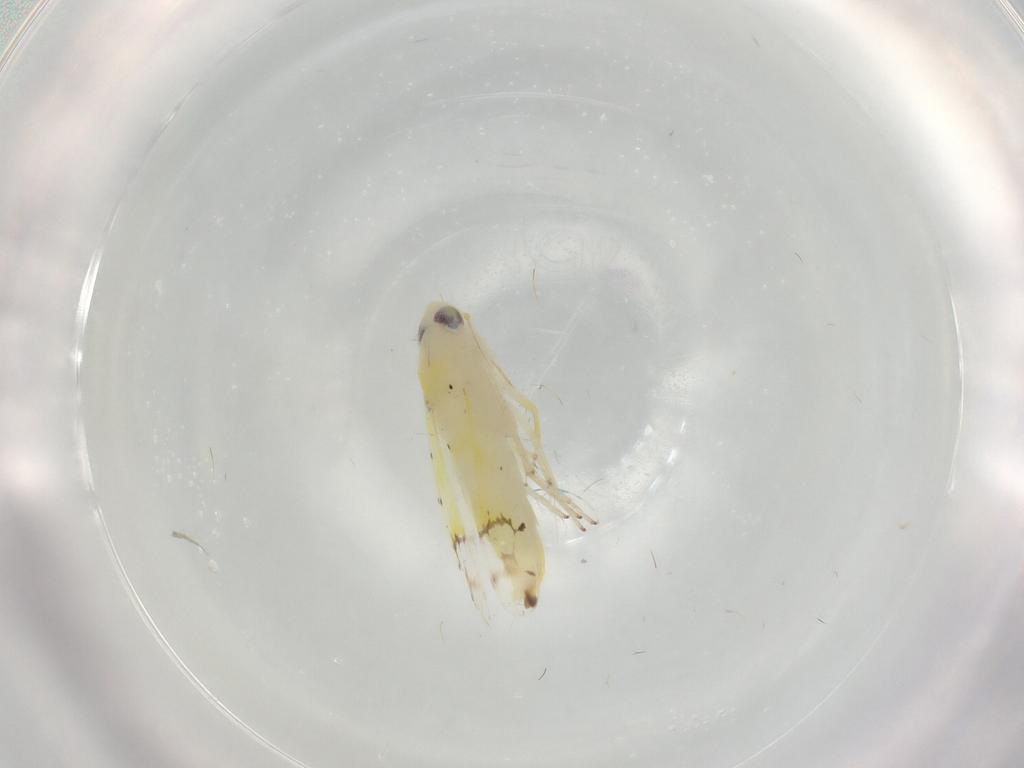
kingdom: Animalia
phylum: Arthropoda
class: Insecta
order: Hemiptera
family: Cicadellidae
